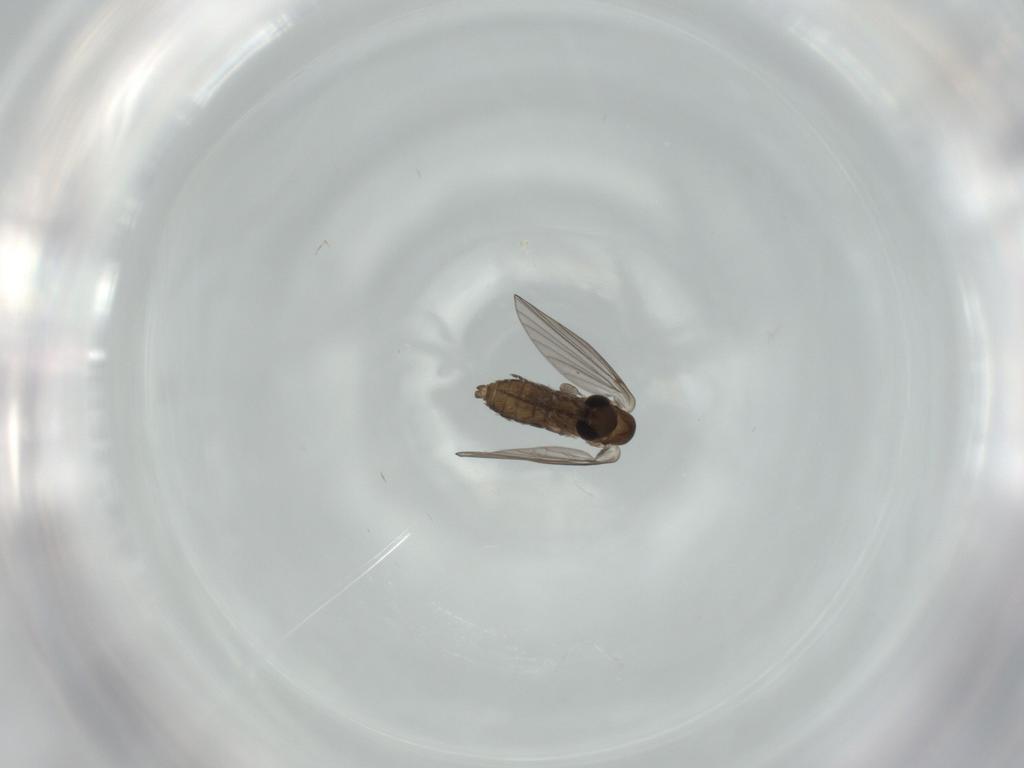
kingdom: Animalia
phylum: Arthropoda
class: Insecta
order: Diptera
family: Psychodidae
